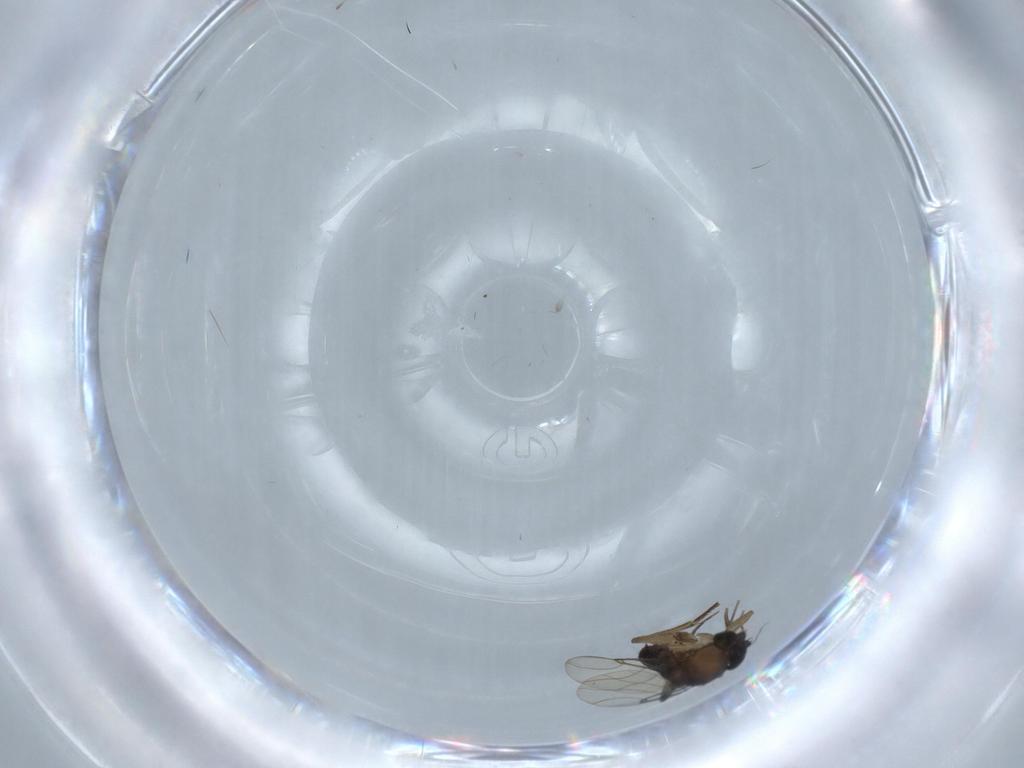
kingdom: Animalia
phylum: Arthropoda
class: Insecta
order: Diptera
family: Phoridae
